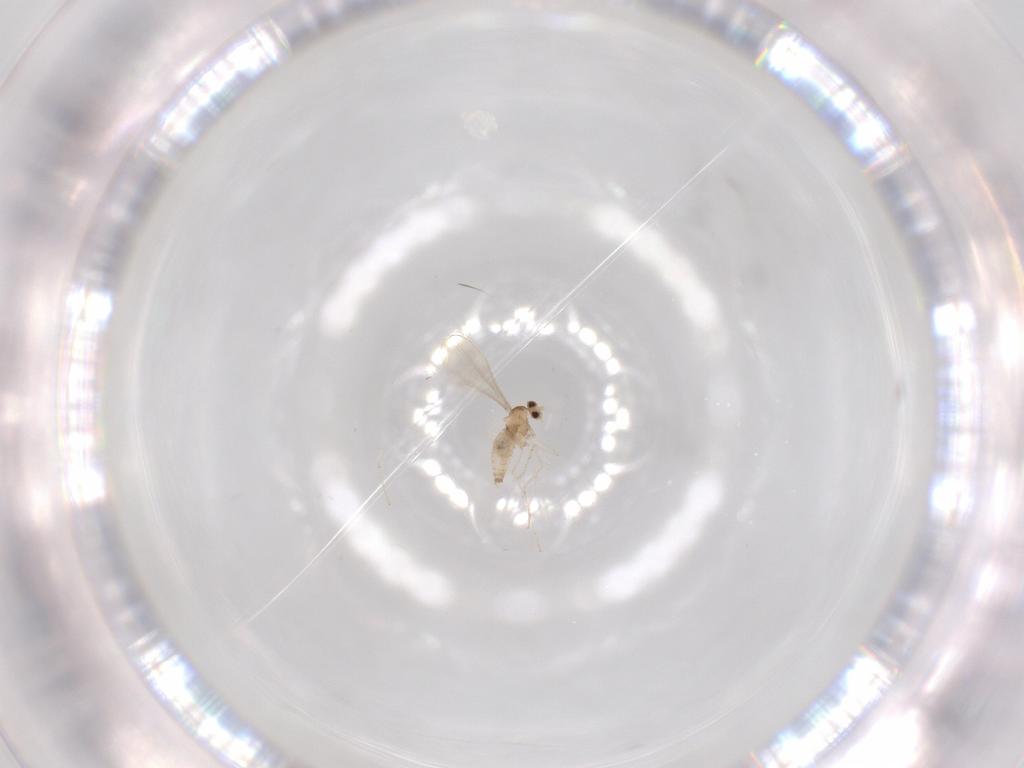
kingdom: Animalia
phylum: Arthropoda
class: Insecta
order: Diptera
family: Cecidomyiidae
